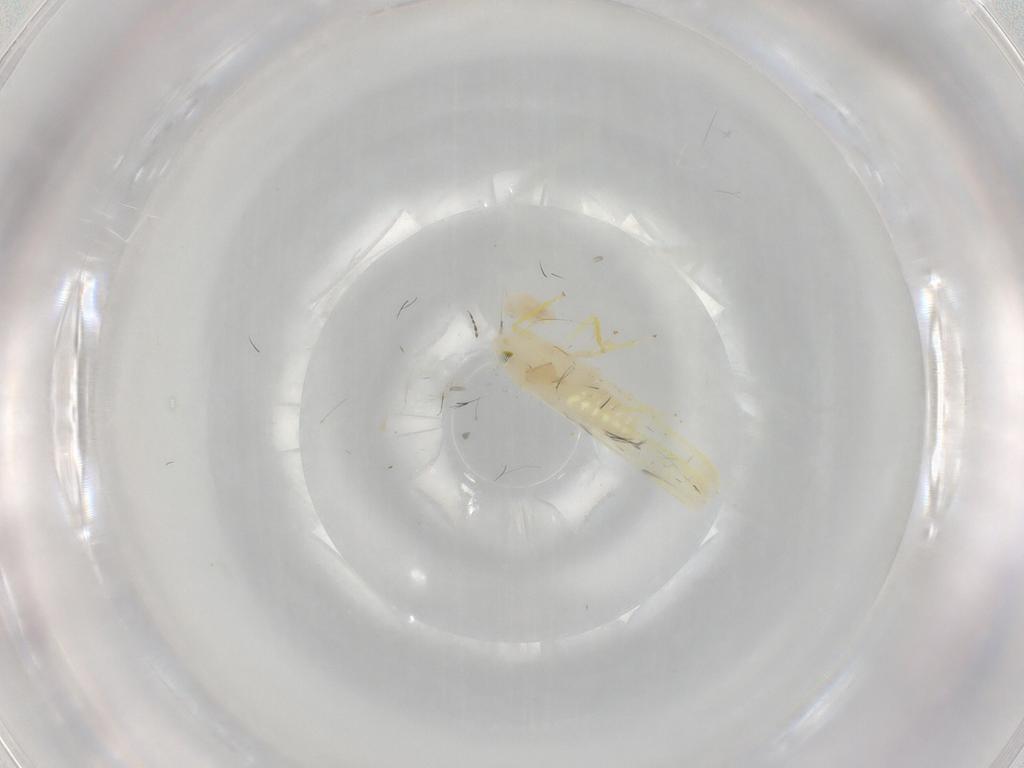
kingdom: Animalia
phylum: Arthropoda
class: Insecta
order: Hemiptera
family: Cicadellidae
